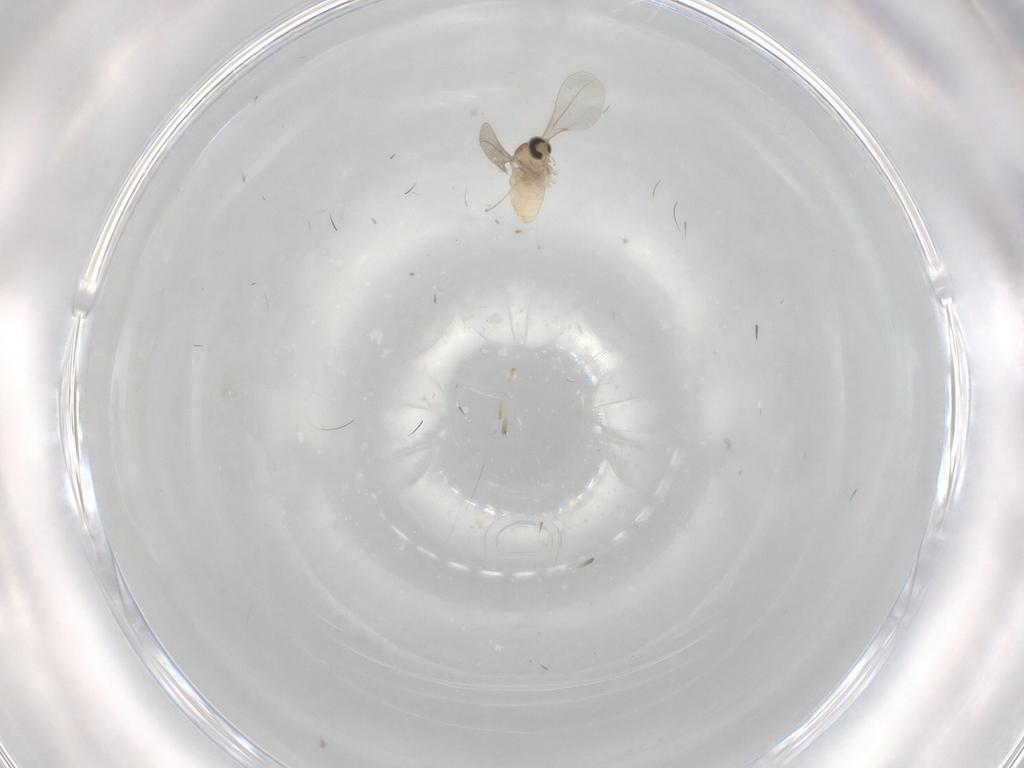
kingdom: Animalia
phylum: Arthropoda
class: Insecta
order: Diptera
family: Cecidomyiidae
